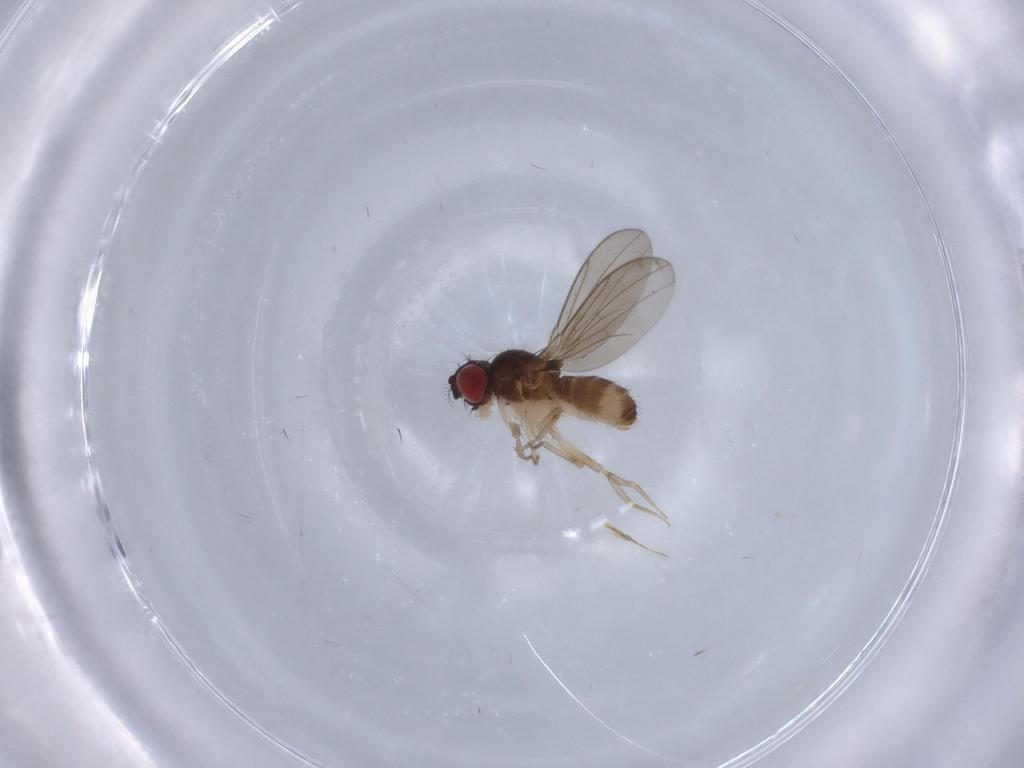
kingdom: Animalia
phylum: Arthropoda
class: Insecta
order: Diptera
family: Drosophilidae
